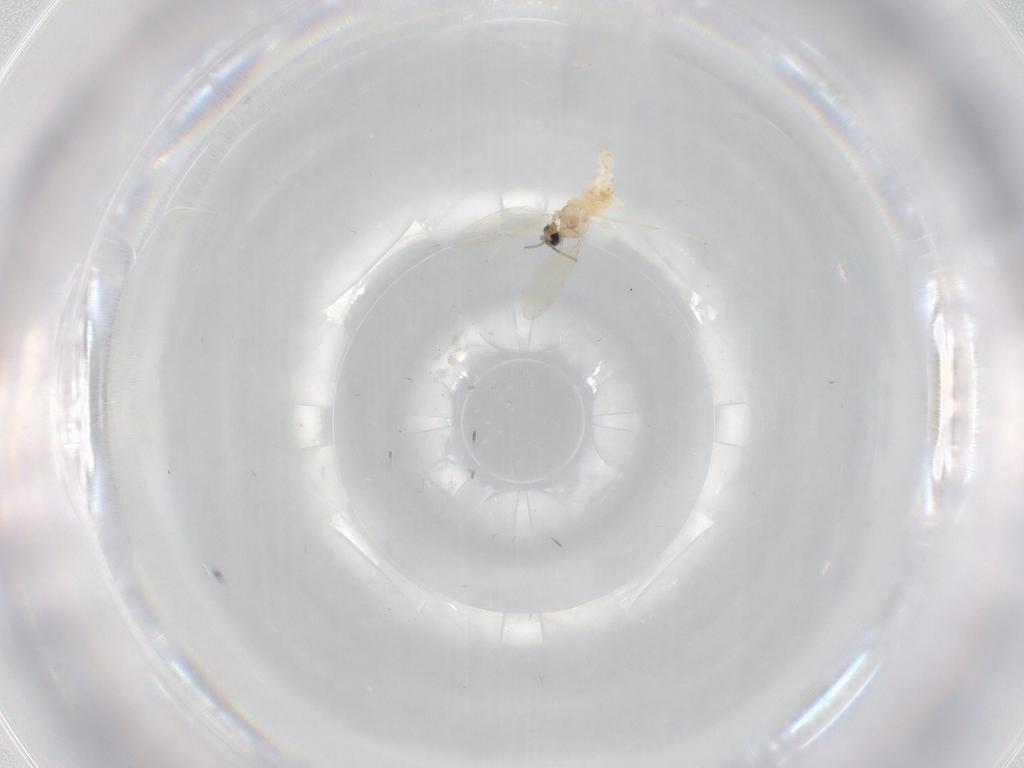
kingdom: Animalia
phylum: Arthropoda
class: Insecta
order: Diptera
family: Cecidomyiidae
